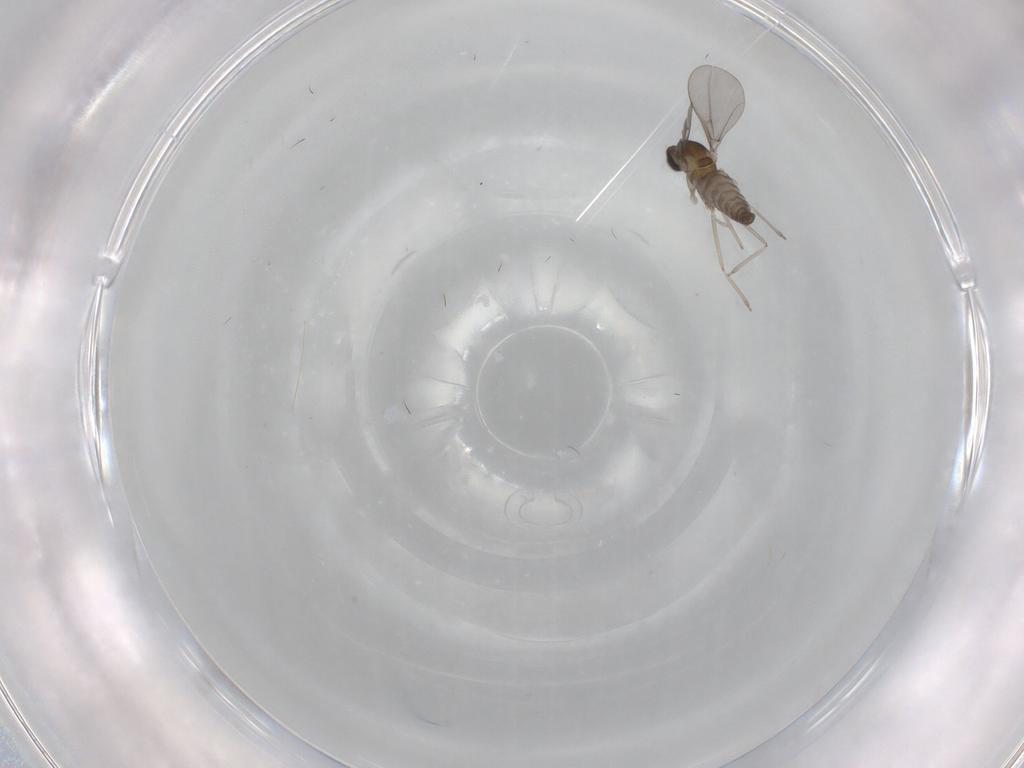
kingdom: Animalia
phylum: Arthropoda
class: Insecta
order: Diptera
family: Cecidomyiidae
